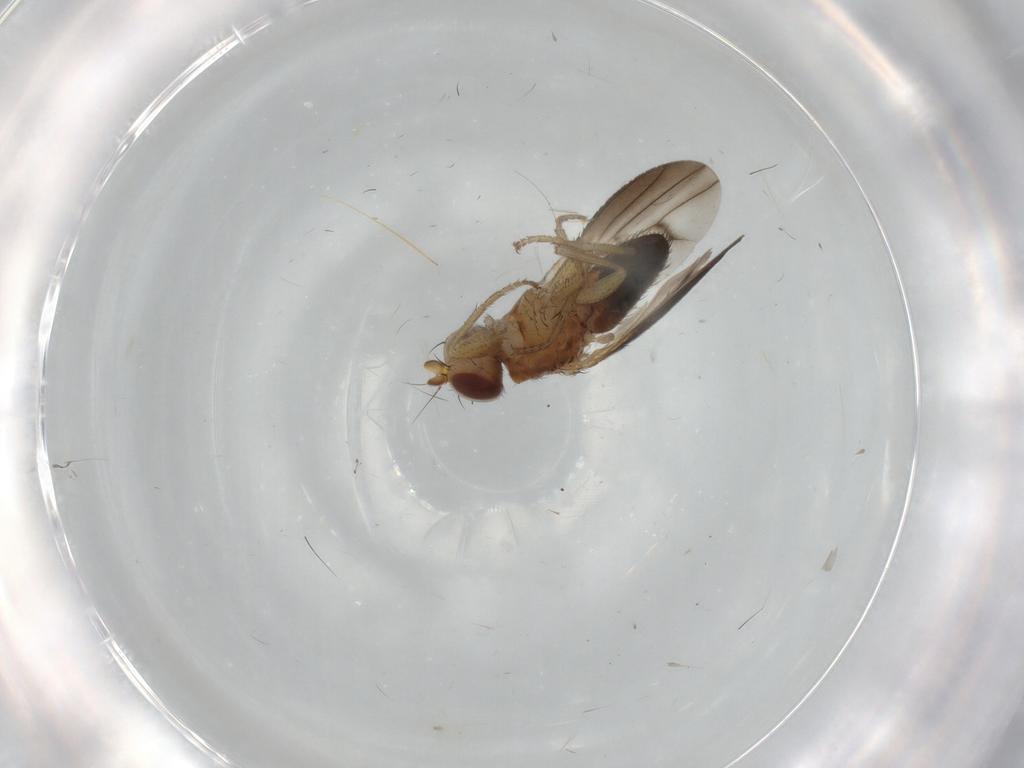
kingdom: Animalia
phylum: Arthropoda
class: Insecta
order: Diptera
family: Heleomyzidae
